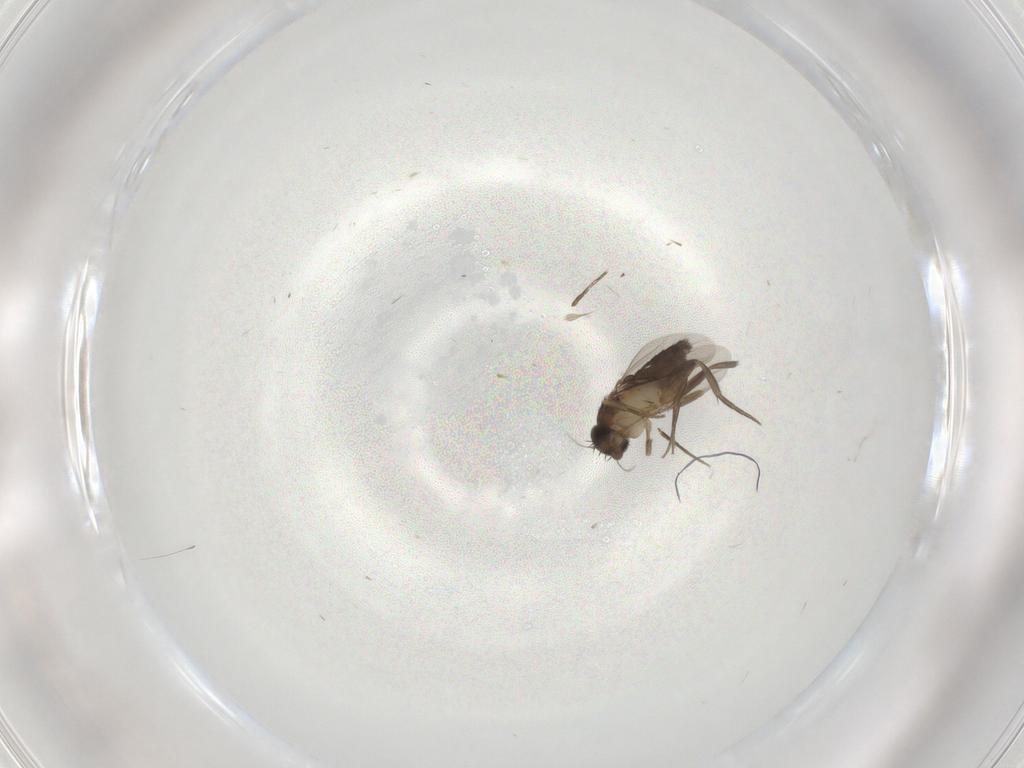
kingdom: Animalia
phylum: Arthropoda
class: Insecta
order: Diptera
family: Phoridae
